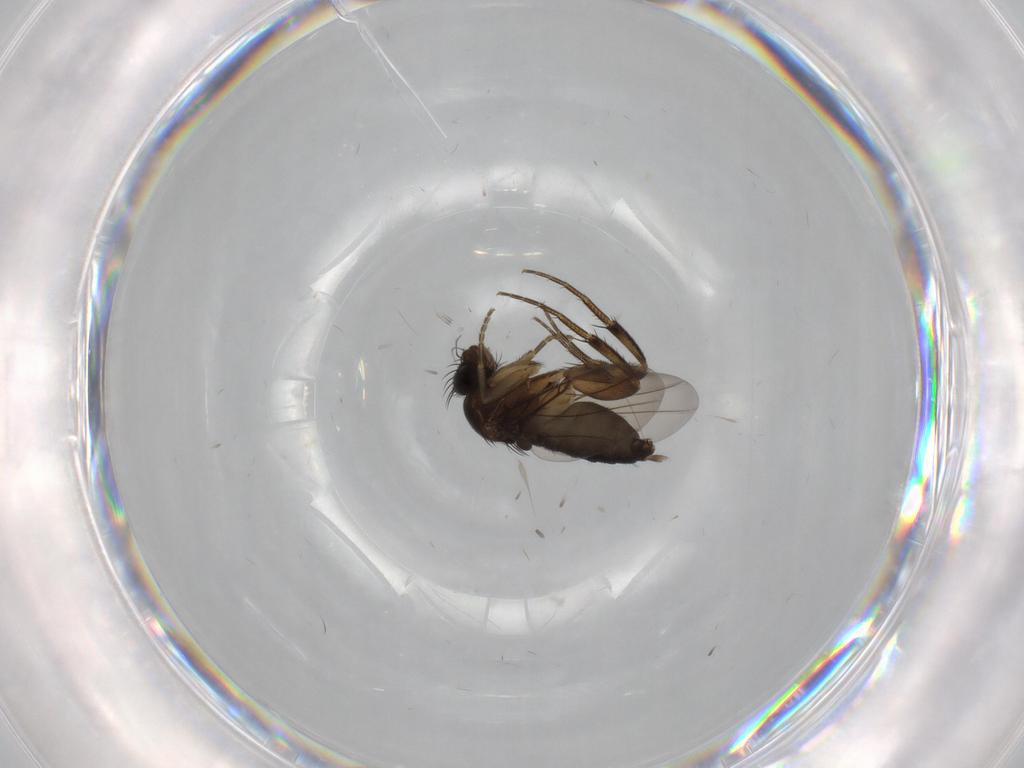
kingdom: Animalia
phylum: Arthropoda
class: Insecta
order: Diptera
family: Phoridae
